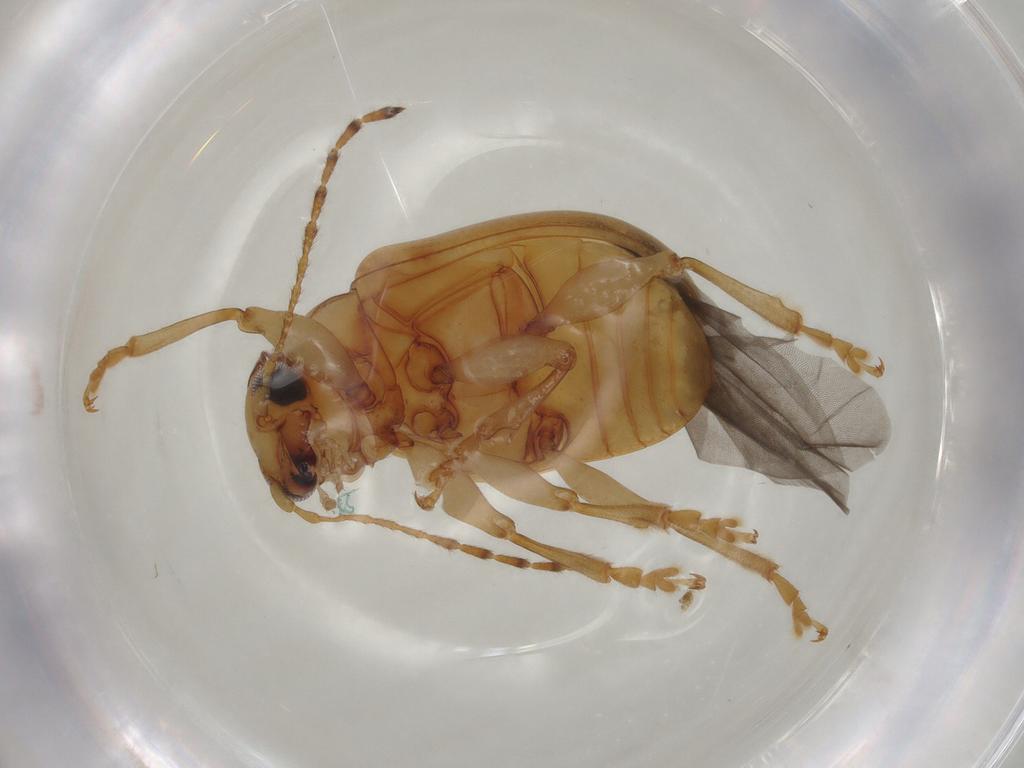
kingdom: Animalia
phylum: Arthropoda
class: Insecta
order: Coleoptera
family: Chrysomelidae
